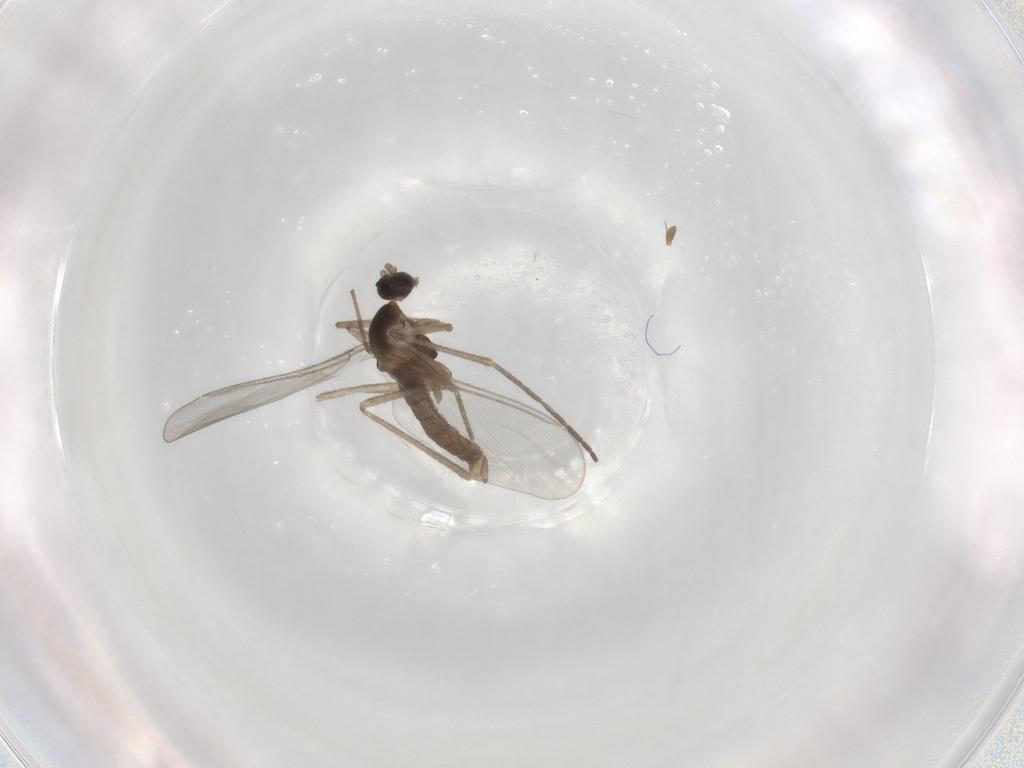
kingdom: Animalia
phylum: Arthropoda
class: Insecta
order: Diptera
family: Cecidomyiidae
